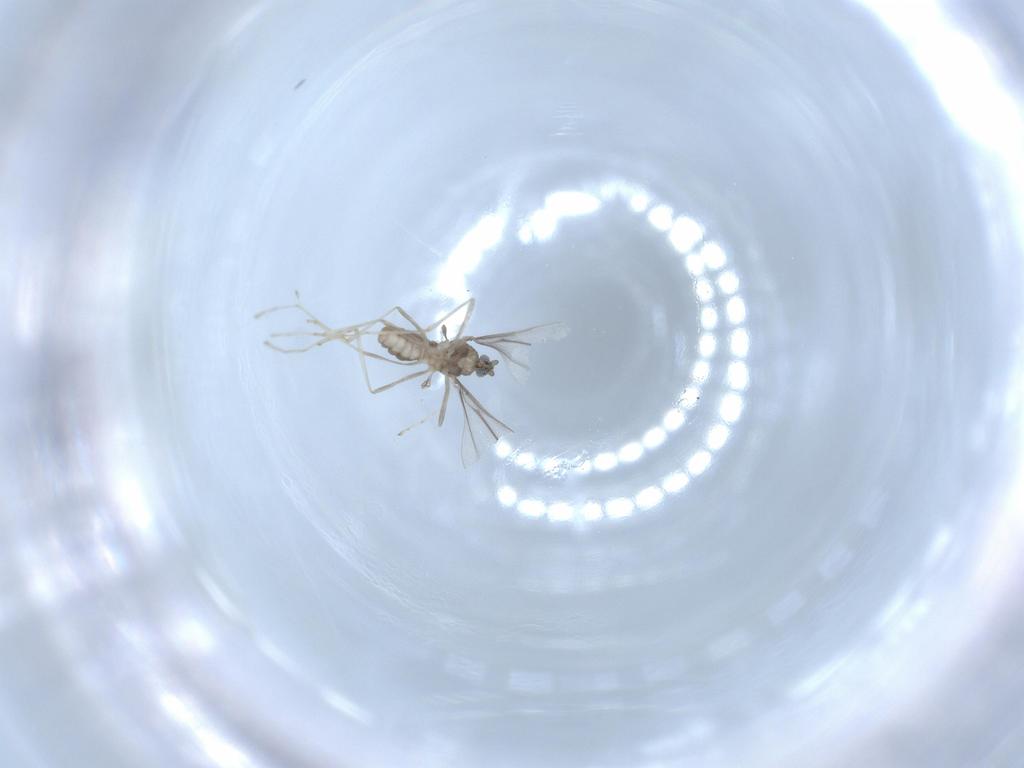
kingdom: Animalia
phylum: Arthropoda
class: Insecta
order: Diptera
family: Cecidomyiidae
